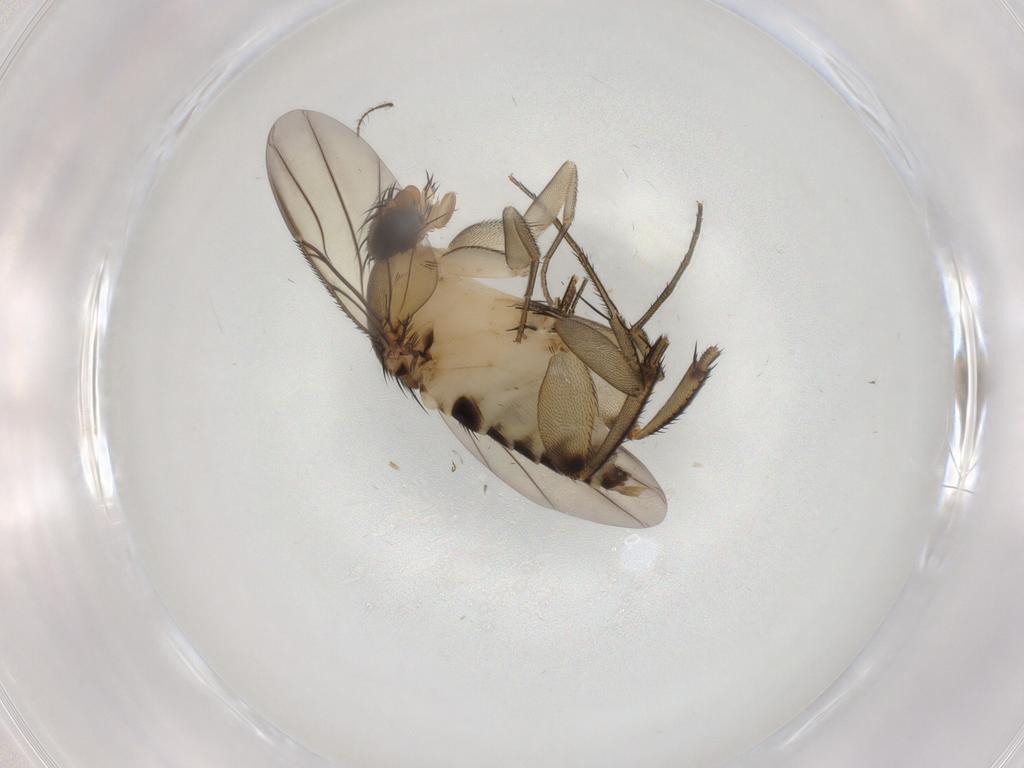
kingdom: Animalia
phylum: Arthropoda
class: Insecta
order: Diptera
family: Phoridae
